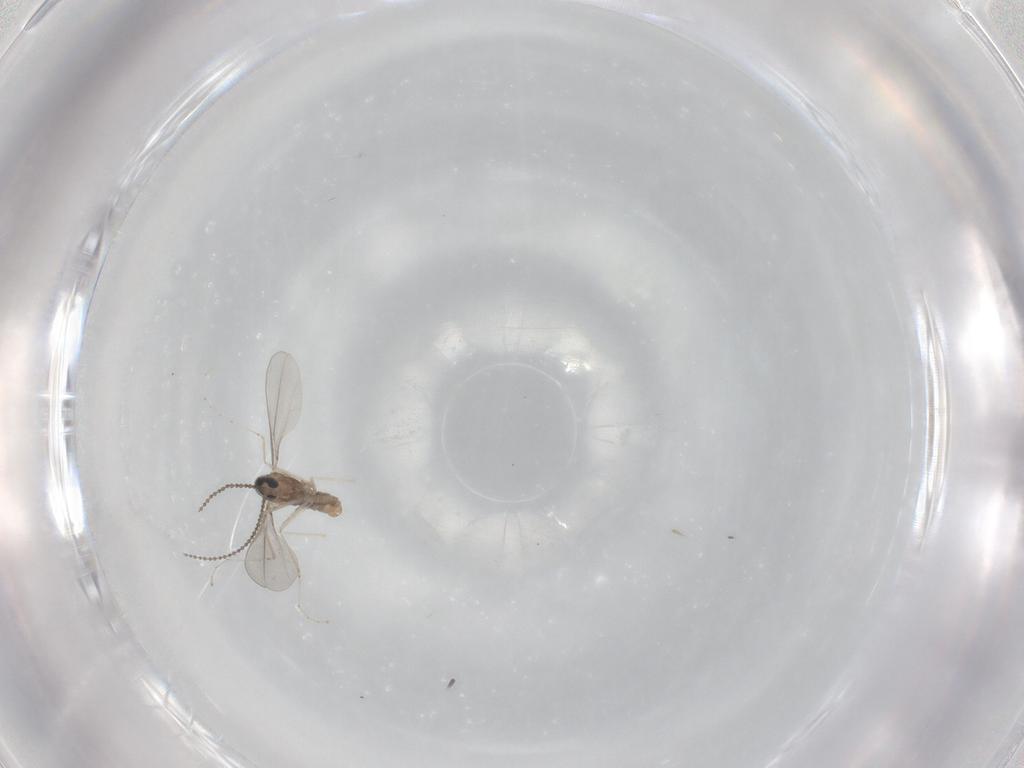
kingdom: Animalia
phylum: Arthropoda
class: Insecta
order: Diptera
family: Cecidomyiidae
